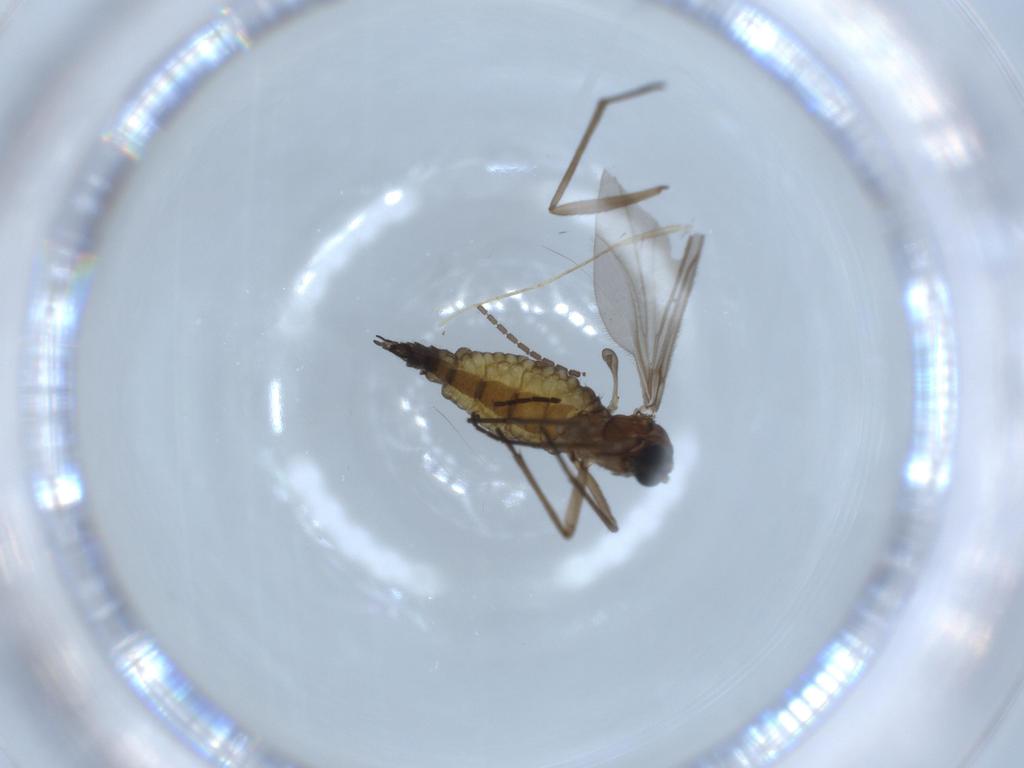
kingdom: Animalia
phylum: Arthropoda
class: Insecta
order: Diptera
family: Sciaridae
